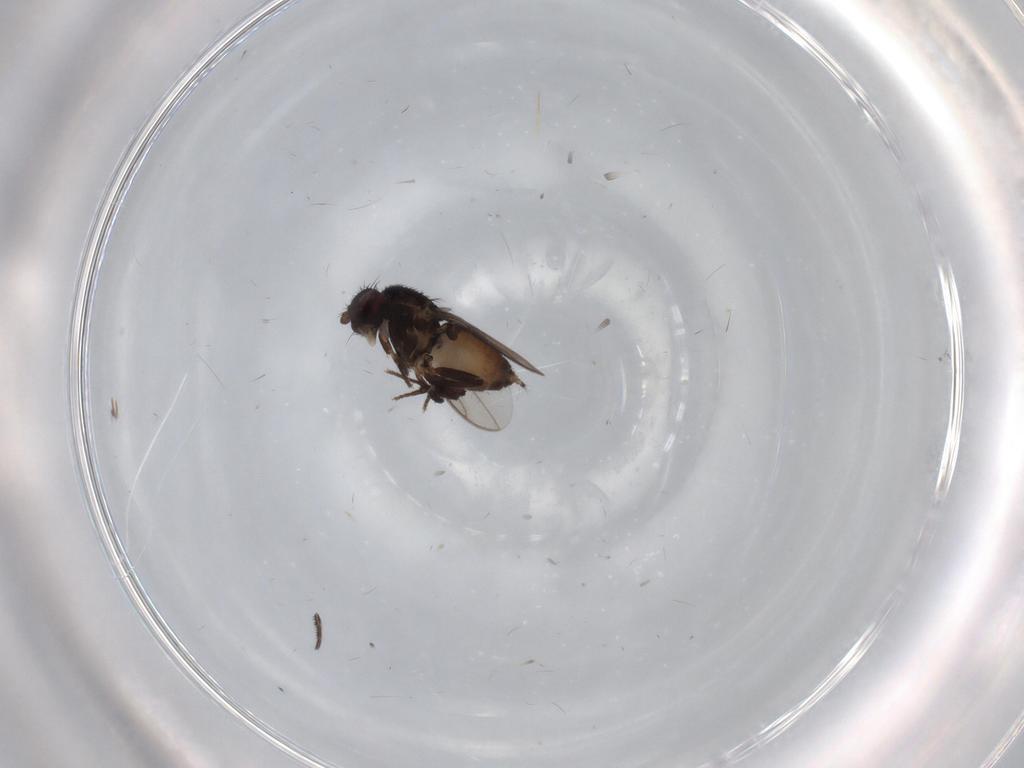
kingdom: Animalia
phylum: Arthropoda
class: Insecta
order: Diptera
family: Sphaeroceridae
